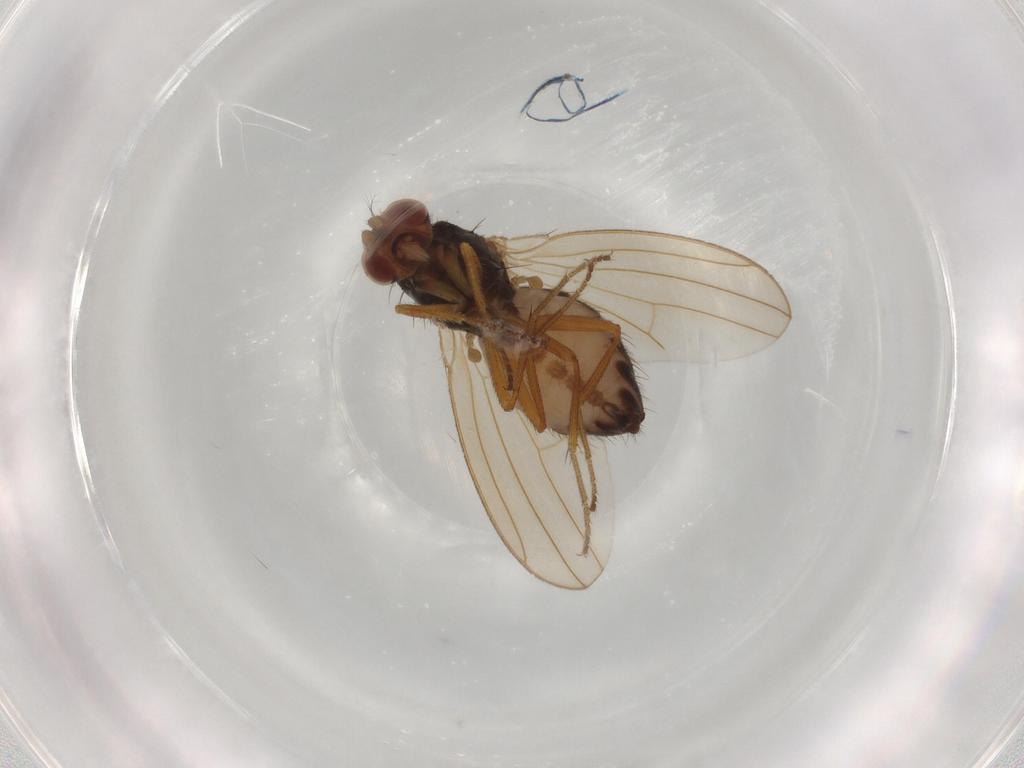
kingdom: Animalia
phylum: Arthropoda
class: Insecta
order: Diptera
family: Drosophilidae
